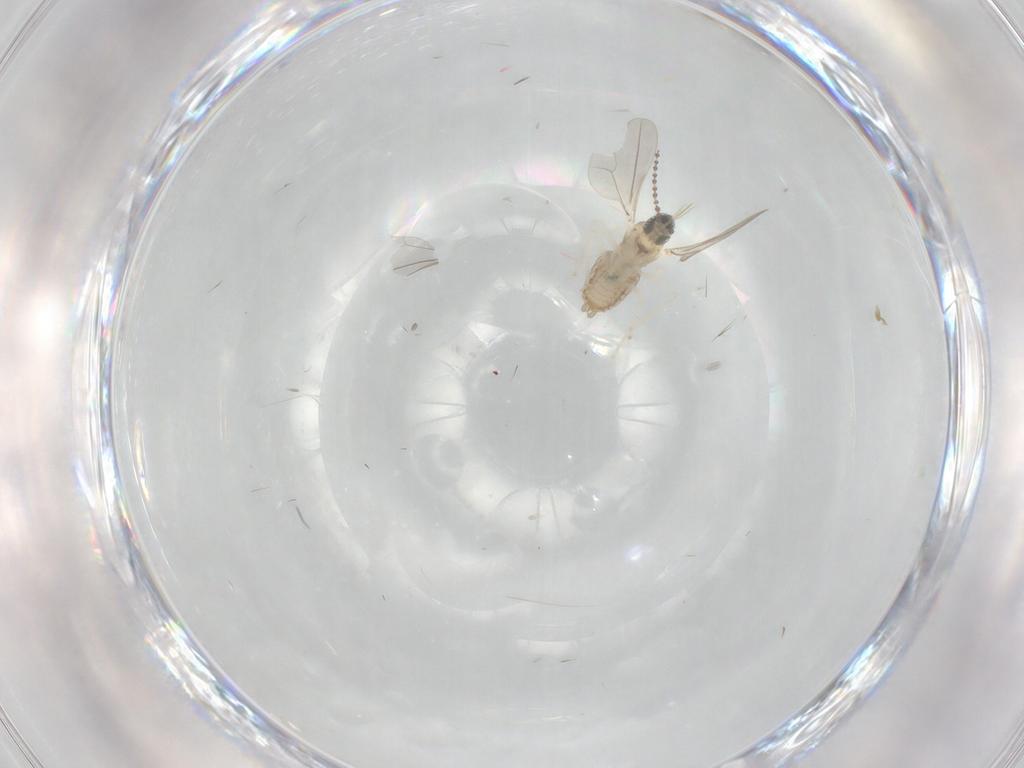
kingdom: Animalia
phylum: Arthropoda
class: Insecta
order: Diptera
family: Cecidomyiidae
